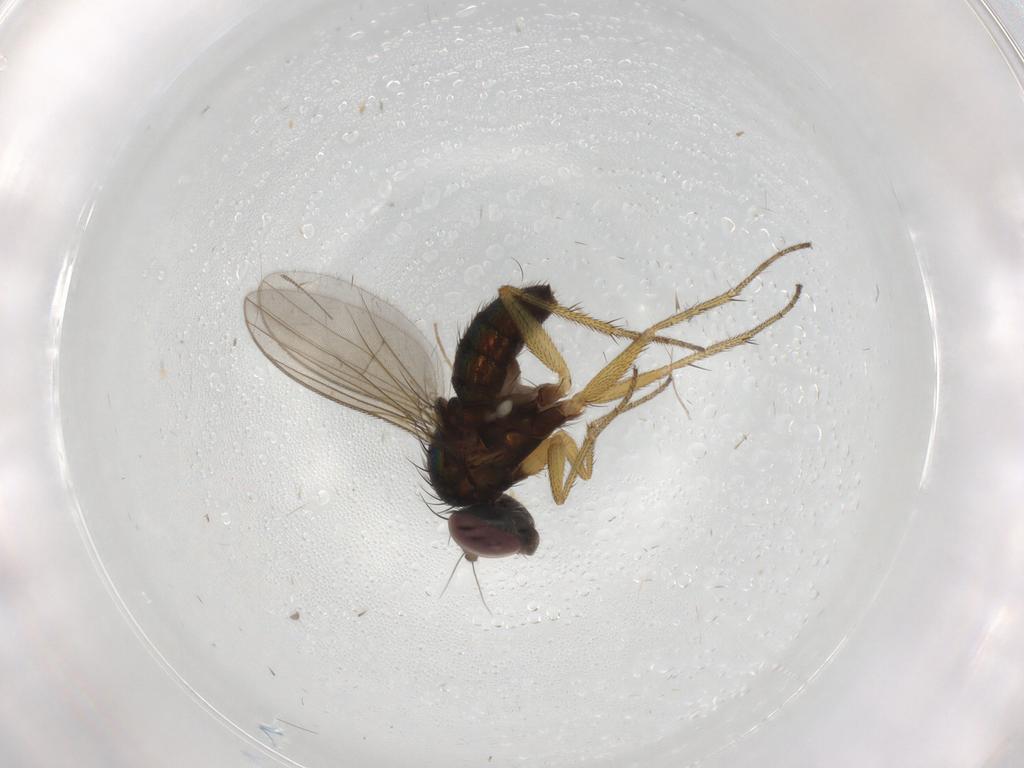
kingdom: Animalia
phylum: Arthropoda
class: Insecta
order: Diptera
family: Dolichopodidae
